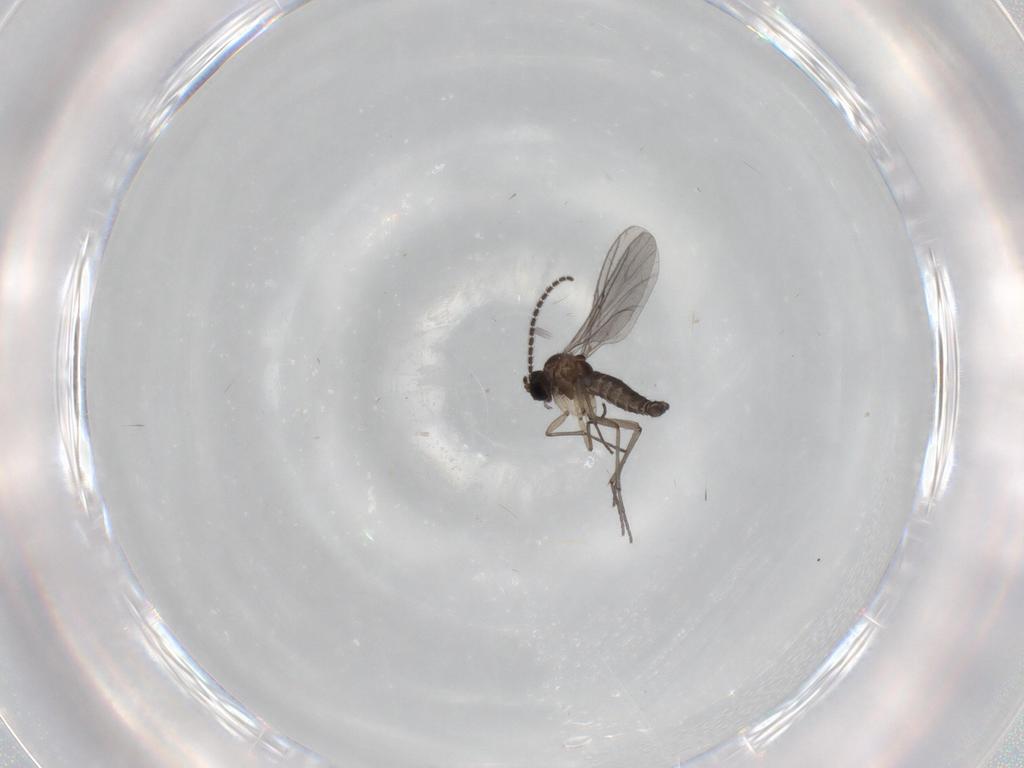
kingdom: Animalia
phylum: Arthropoda
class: Insecta
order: Diptera
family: Sciaridae
